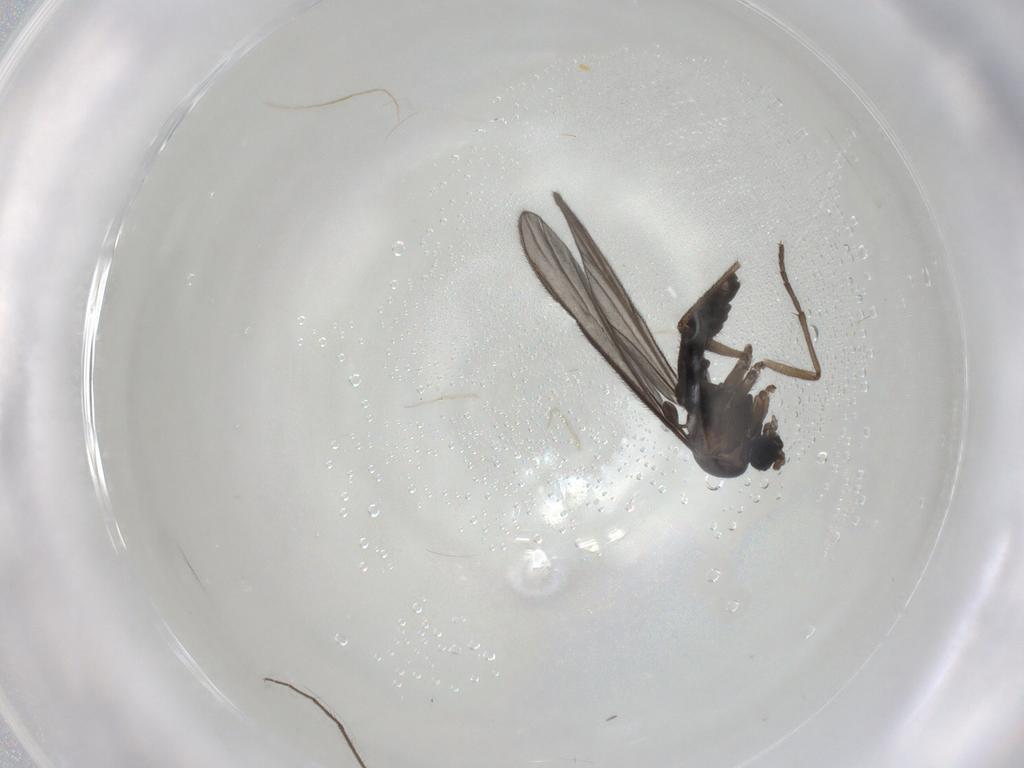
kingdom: Animalia
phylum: Arthropoda
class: Insecta
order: Diptera
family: Sciaridae
